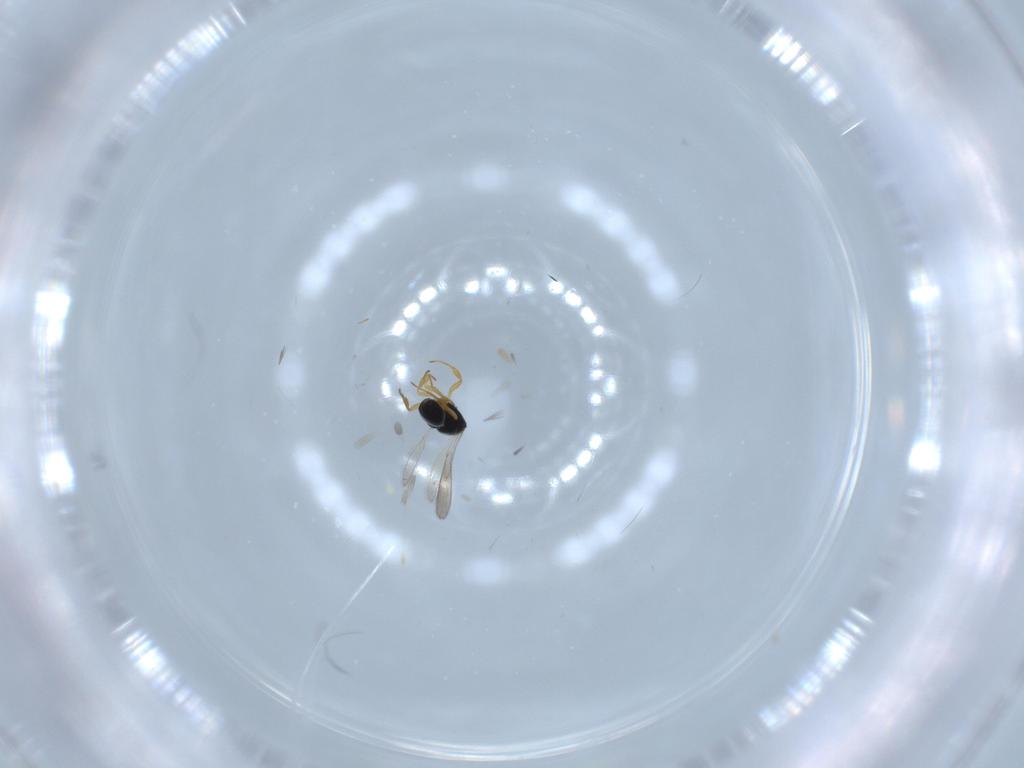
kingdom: Animalia
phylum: Arthropoda
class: Insecta
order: Hymenoptera
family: Scelionidae
